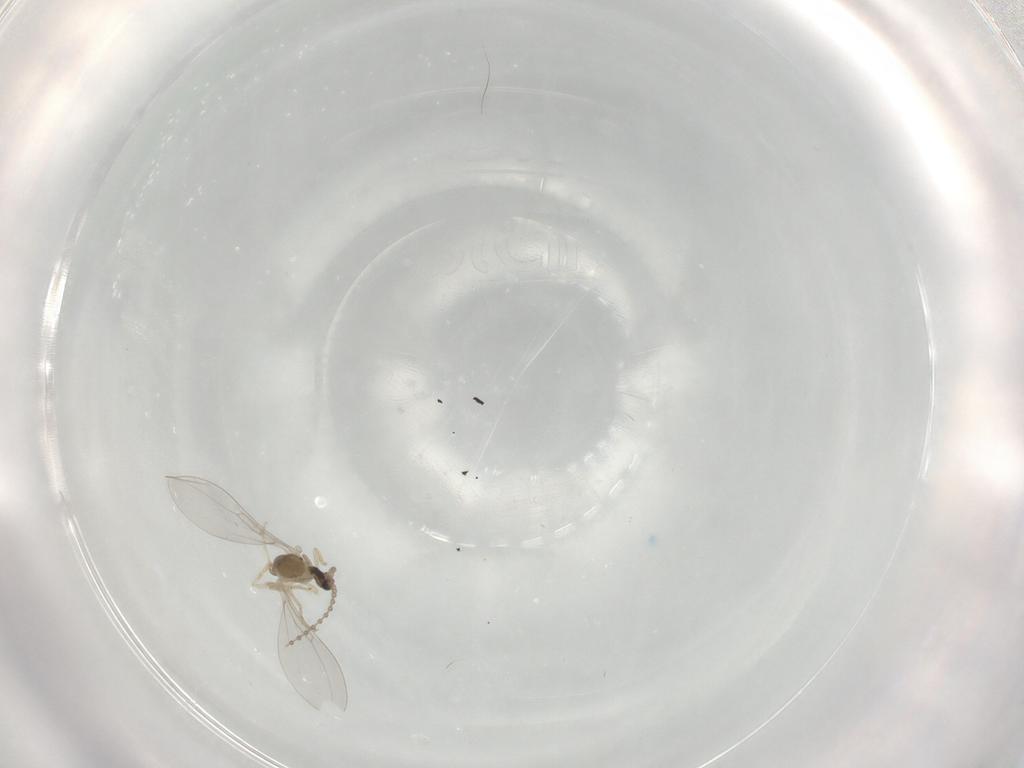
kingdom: Animalia
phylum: Arthropoda
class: Insecta
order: Diptera
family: Cecidomyiidae
